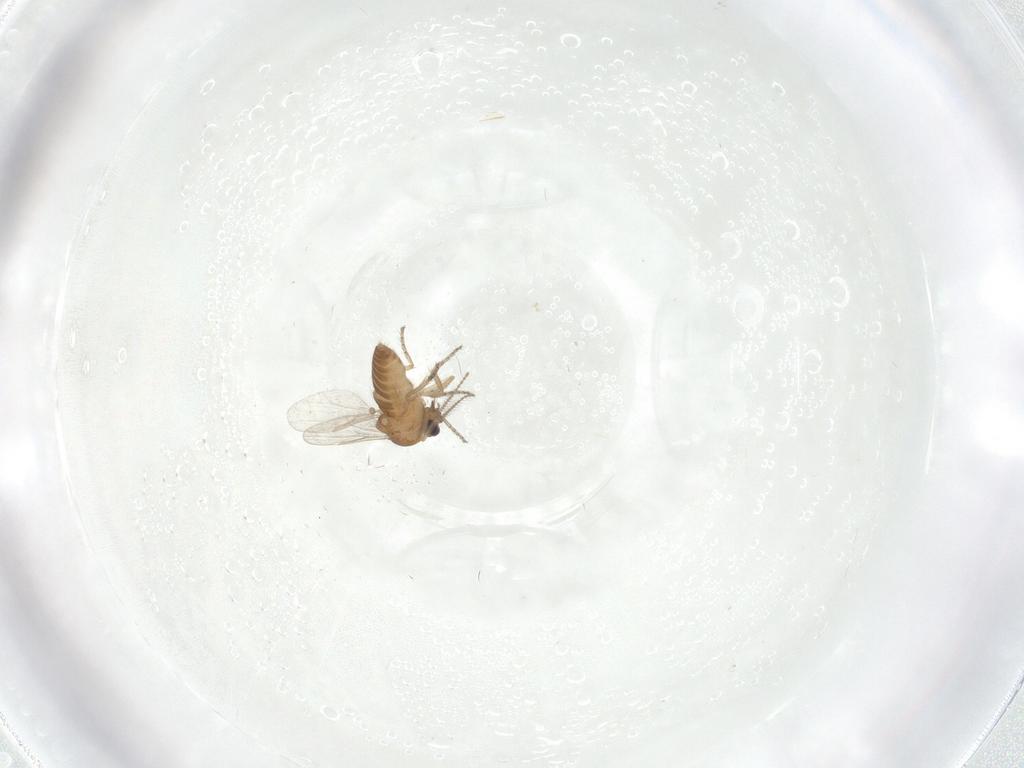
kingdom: Animalia
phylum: Arthropoda
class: Insecta
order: Diptera
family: Ceratopogonidae
